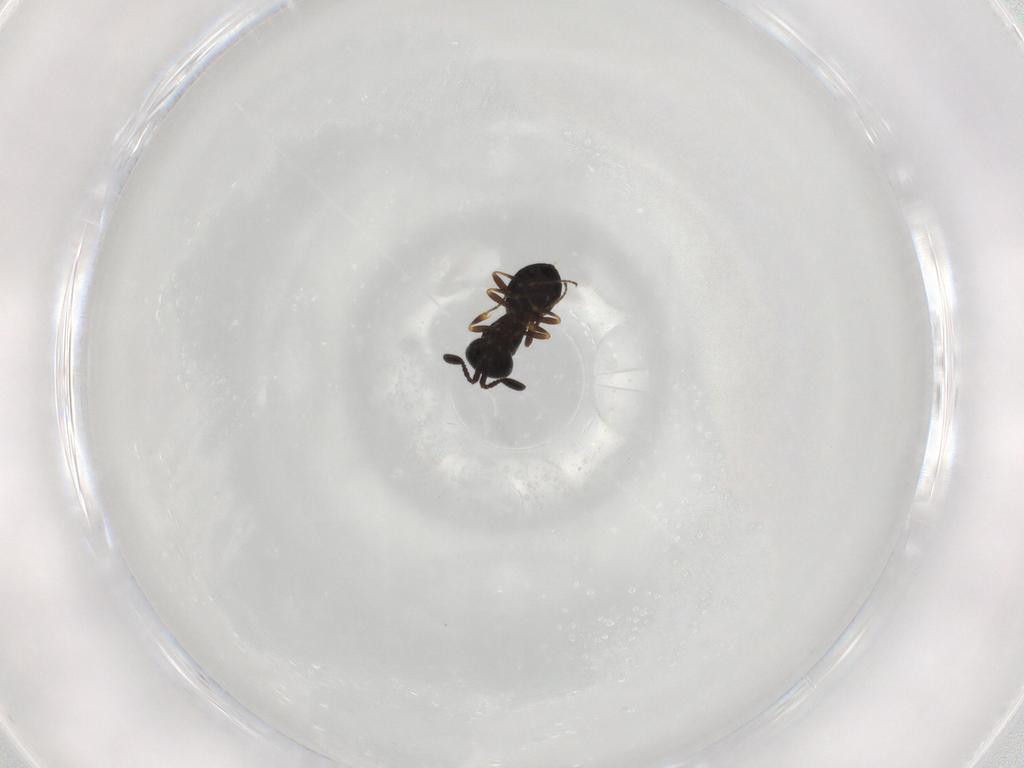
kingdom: Animalia
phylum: Arthropoda
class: Insecta
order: Hymenoptera
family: Scelionidae
